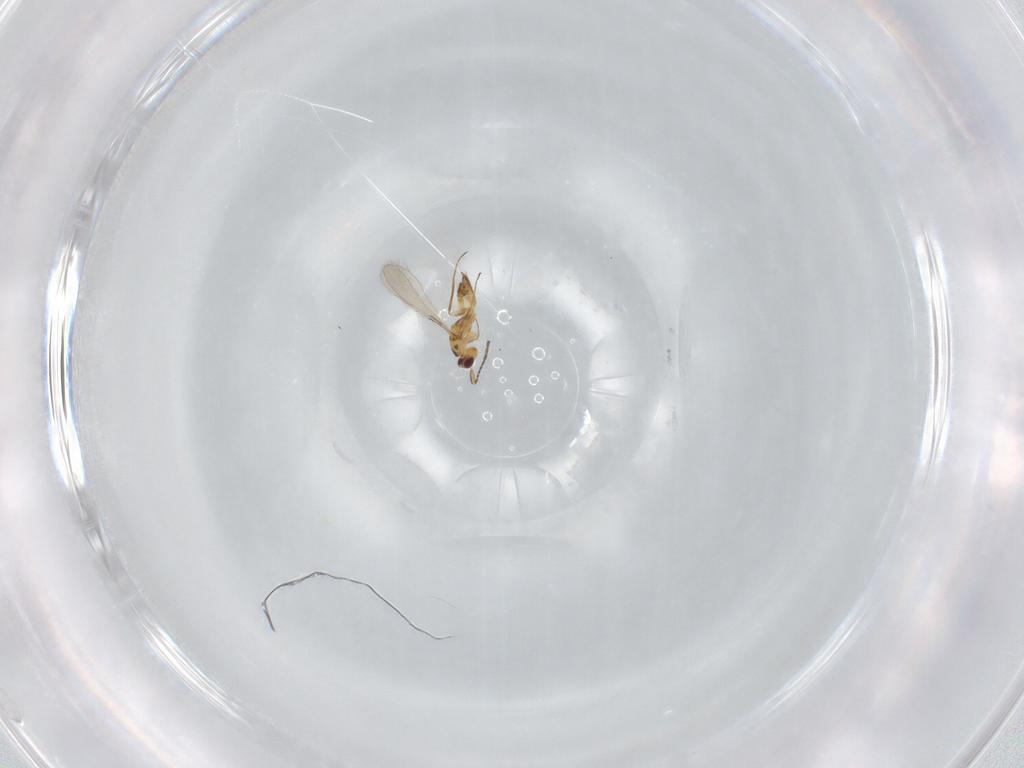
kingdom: Animalia
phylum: Arthropoda
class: Insecta
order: Hymenoptera
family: Mymaridae
